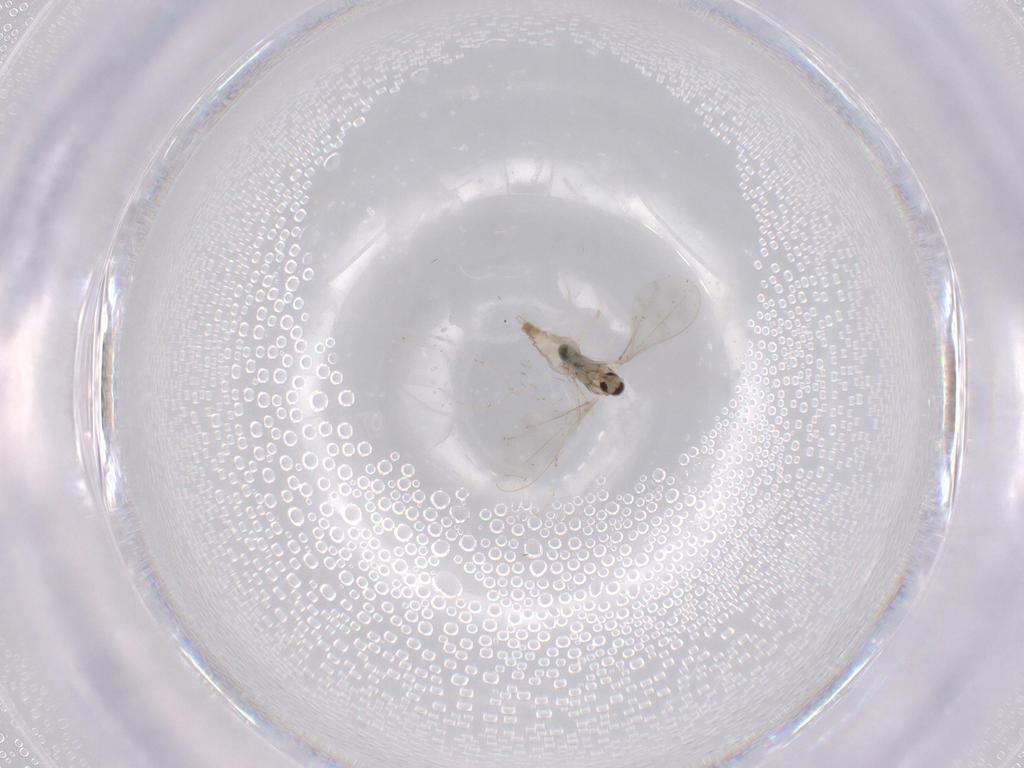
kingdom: Animalia
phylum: Arthropoda
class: Insecta
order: Diptera
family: Cecidomyiidae
